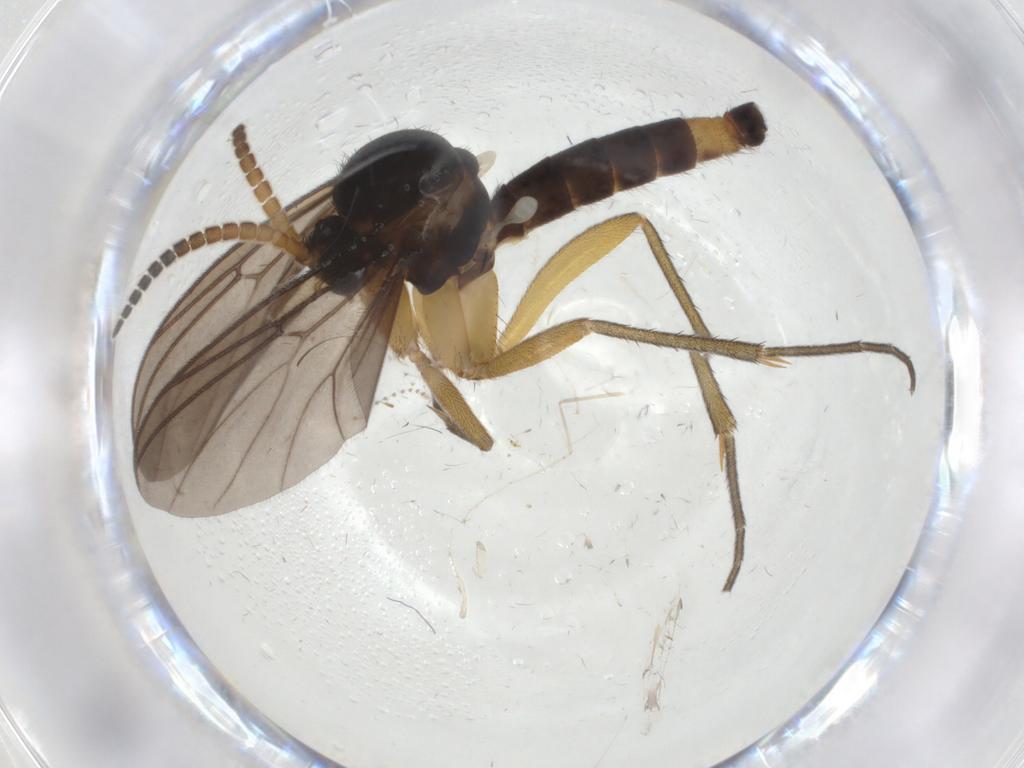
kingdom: Animalia
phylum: Arthropoda
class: Insecta
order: Diptera
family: Mycetophilidae
